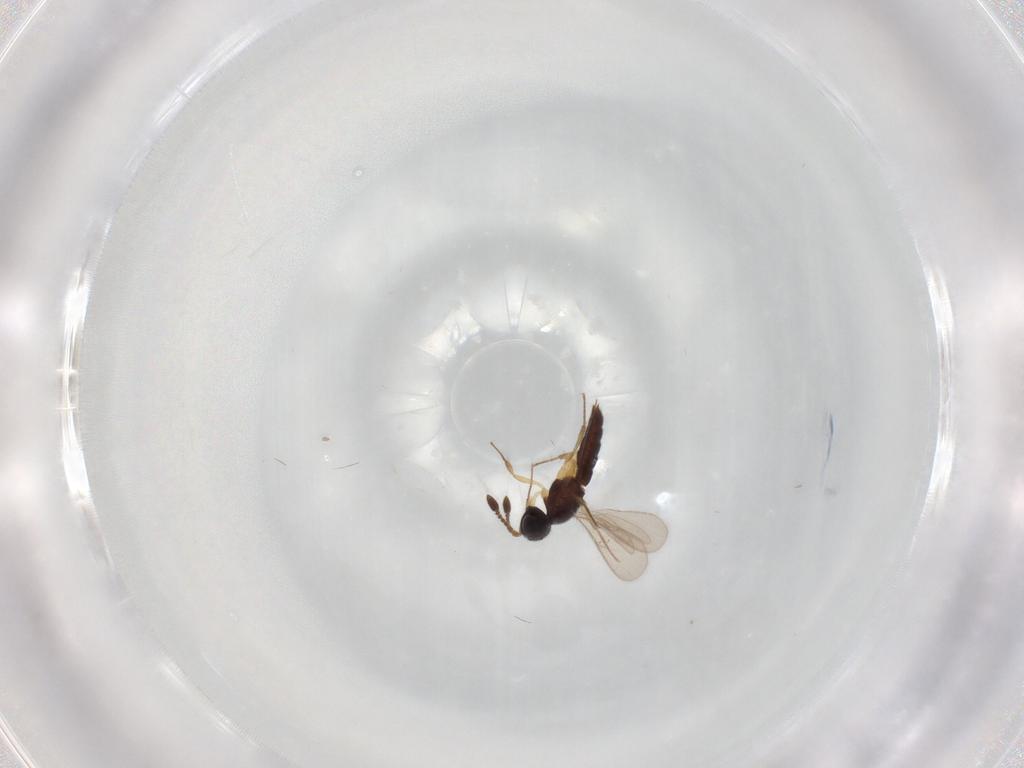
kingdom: Animalia
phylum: Arthropoda
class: Insecta
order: Hymenoptera
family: Scelionidae
